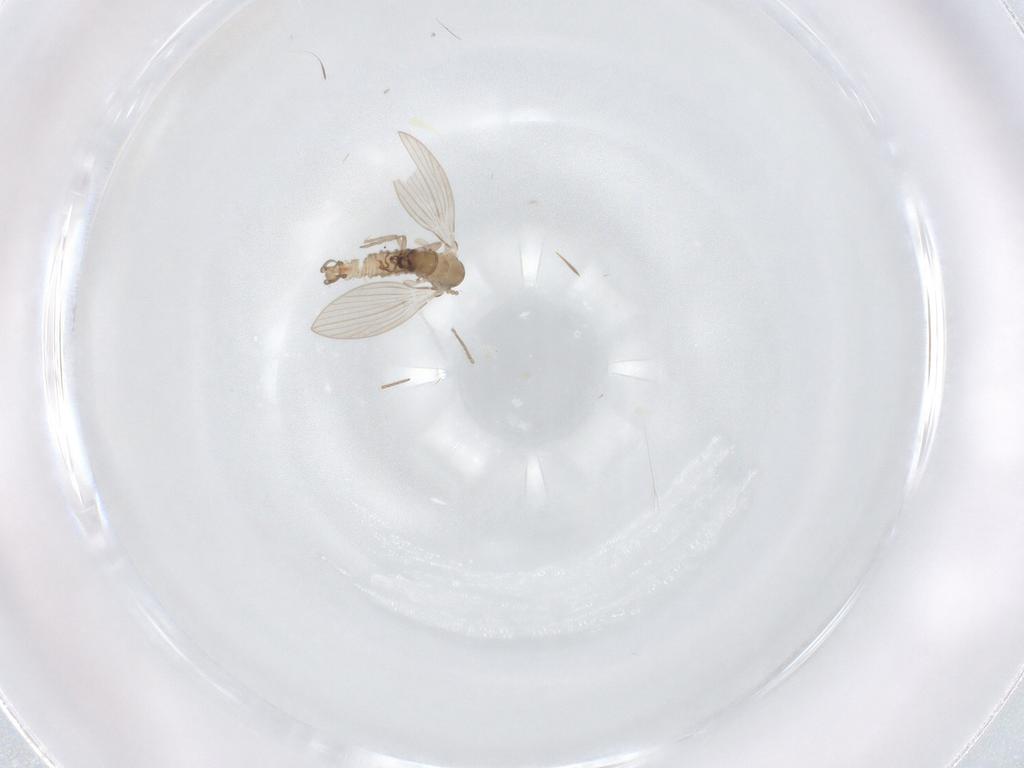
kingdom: Animalia
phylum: Arthropoda
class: Insecta
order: Diptera
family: Psychodidae
